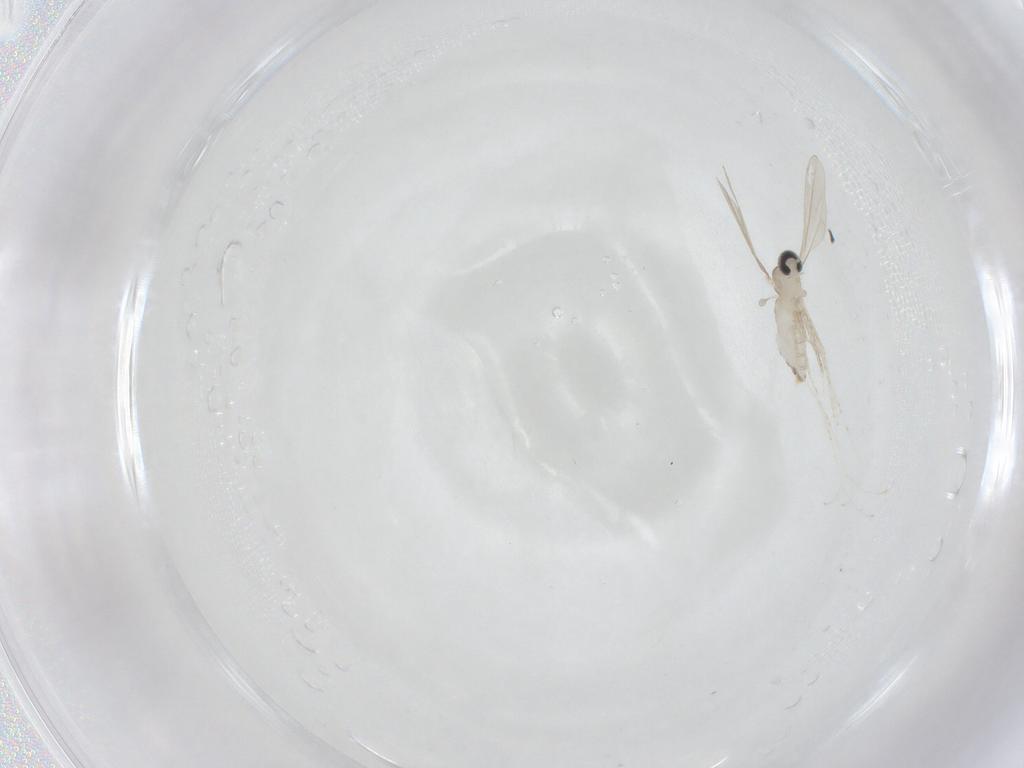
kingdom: Animalia
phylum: Arthropoda
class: Insecta
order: Diptera
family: Cecidomyiidae
